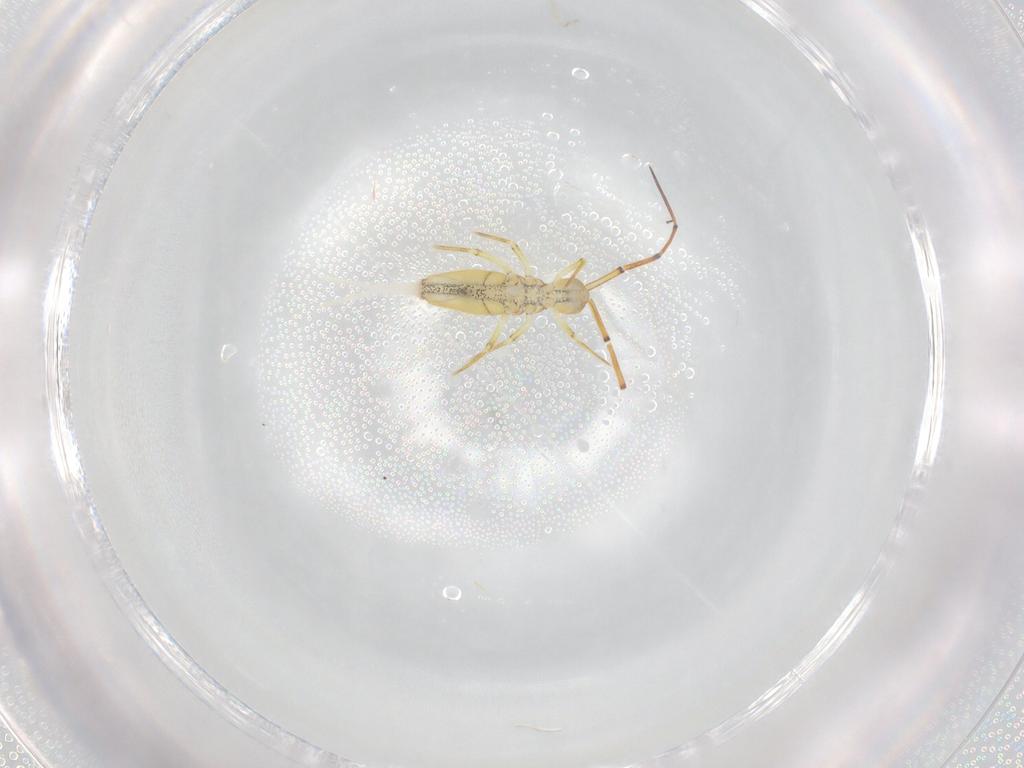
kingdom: Animalia
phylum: Arthropoda
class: Collembola
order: Entomobryomorpha
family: Entomobryidae
